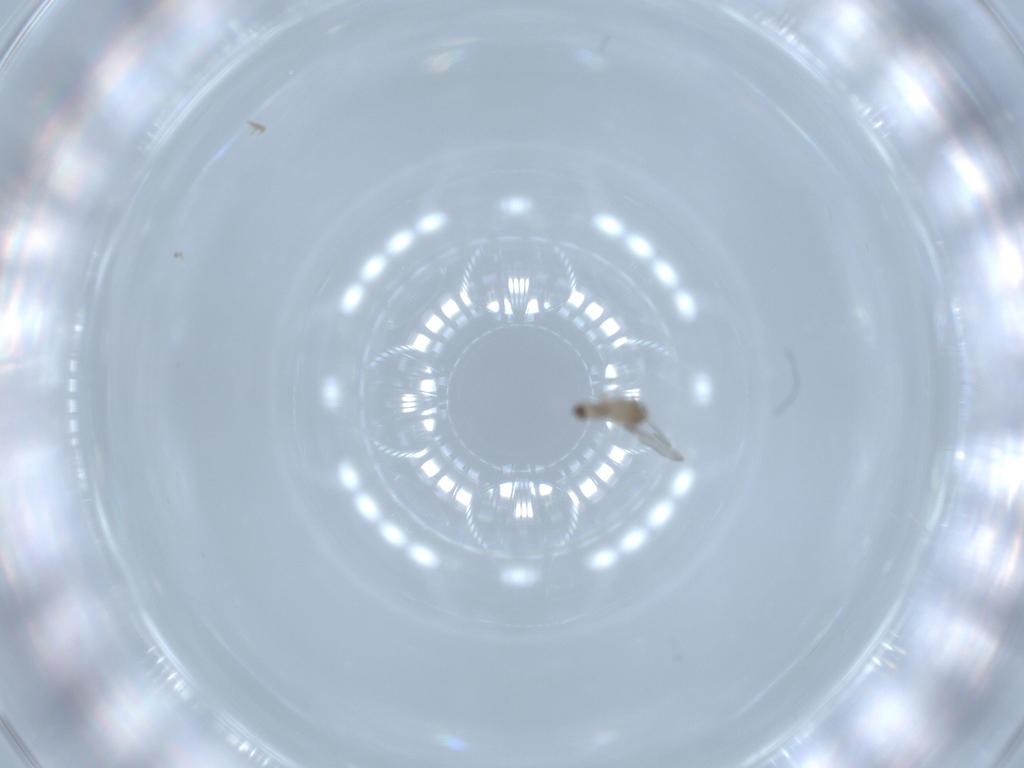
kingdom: Animalia
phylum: Arthropoda
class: Insecta
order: Diptera
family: Cecidomyiidae
